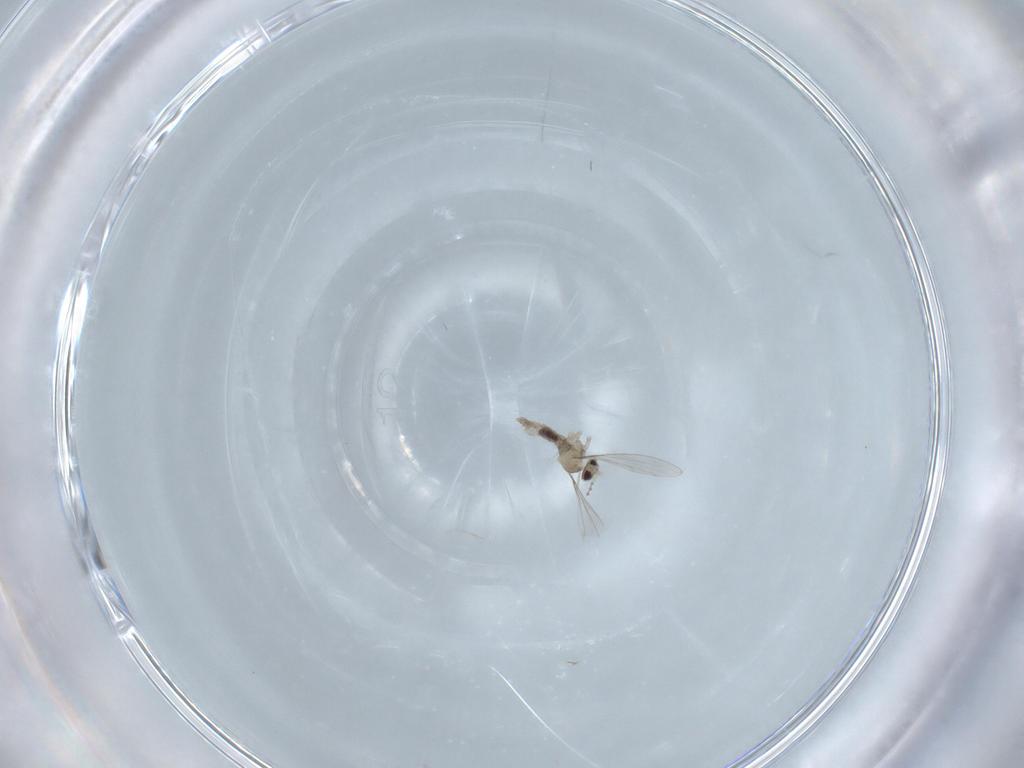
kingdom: Animalia
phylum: Arthropoda
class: Insecta
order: Diptera
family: Cecidomyiidae
